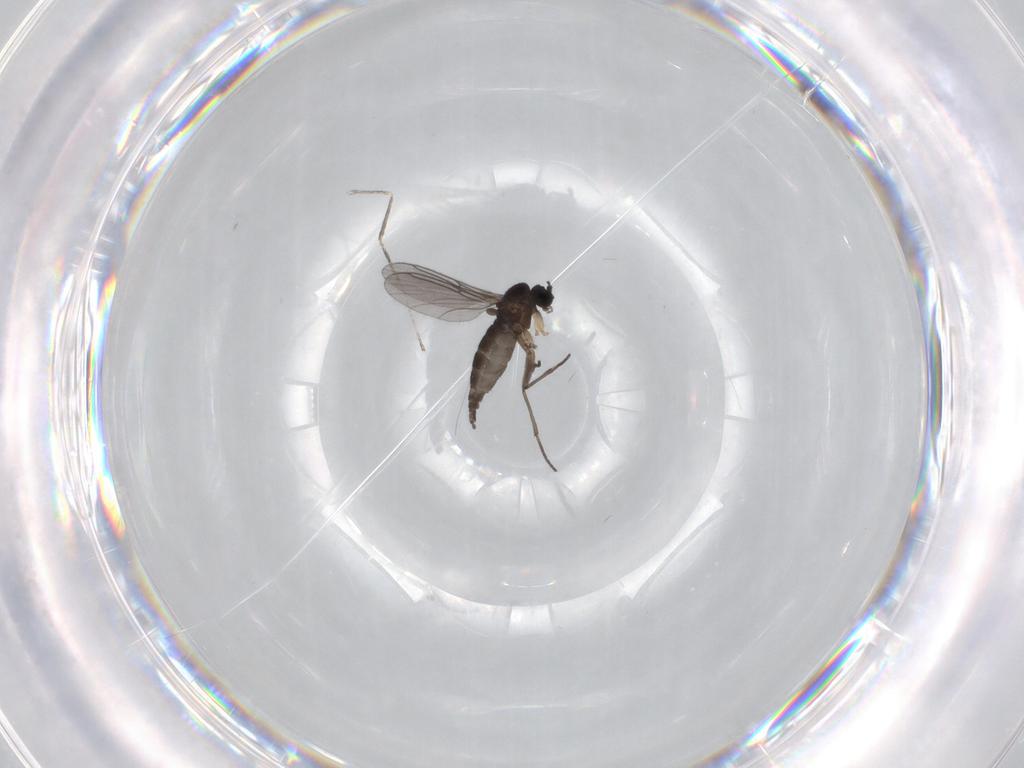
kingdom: Animalia
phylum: Arthropoda
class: Insecta
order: Diptera
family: Sciaridae
